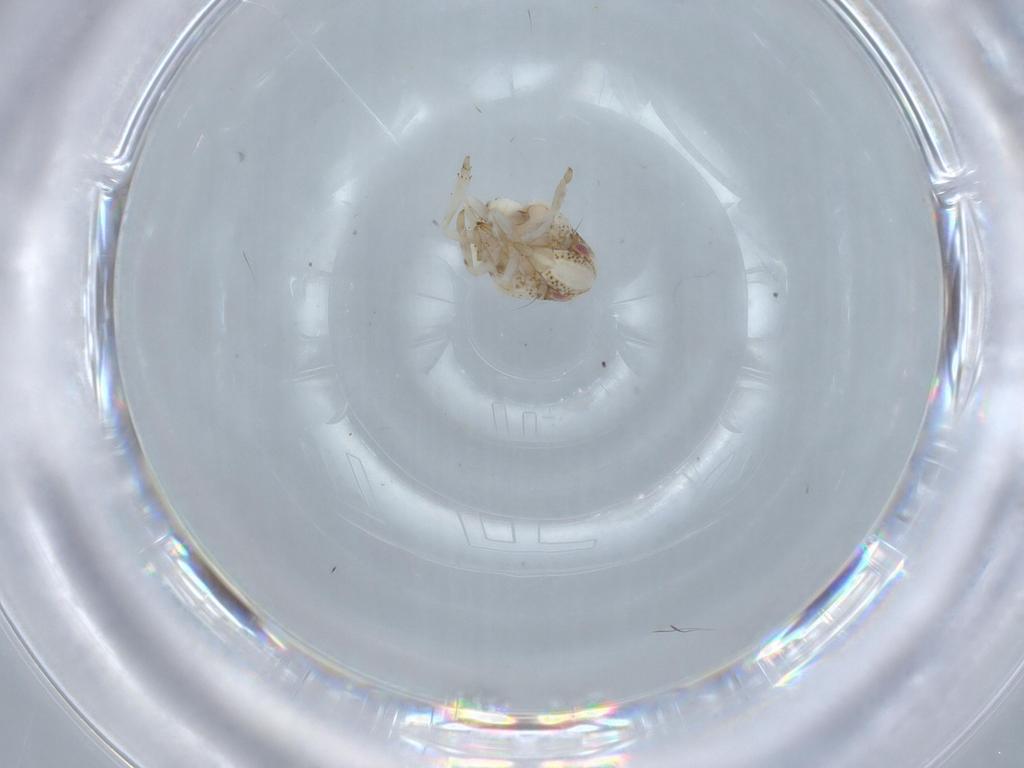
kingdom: Animalia
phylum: Arthropoda
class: Insecta
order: Hemiptera
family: Acanaloniidae
